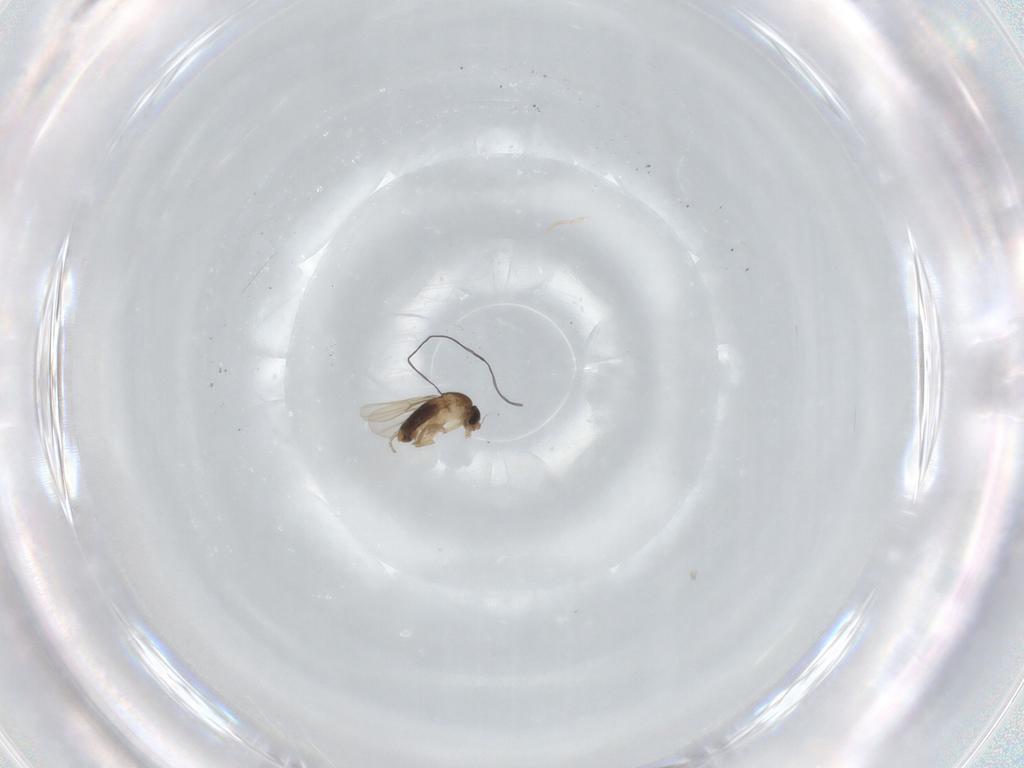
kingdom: Animalia
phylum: Arthropoda
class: Insecta
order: Diptera
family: Phoridae
